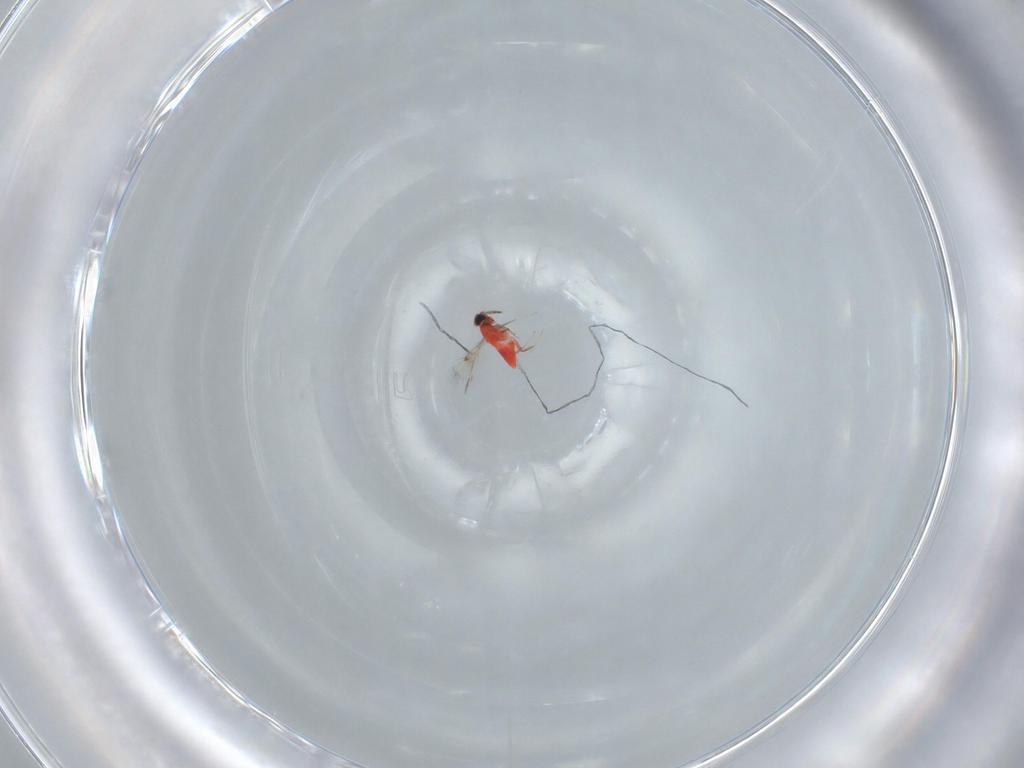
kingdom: Animalia
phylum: Arthropoda
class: Insecta
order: Hymenoptera
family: Trichogrammatidae
